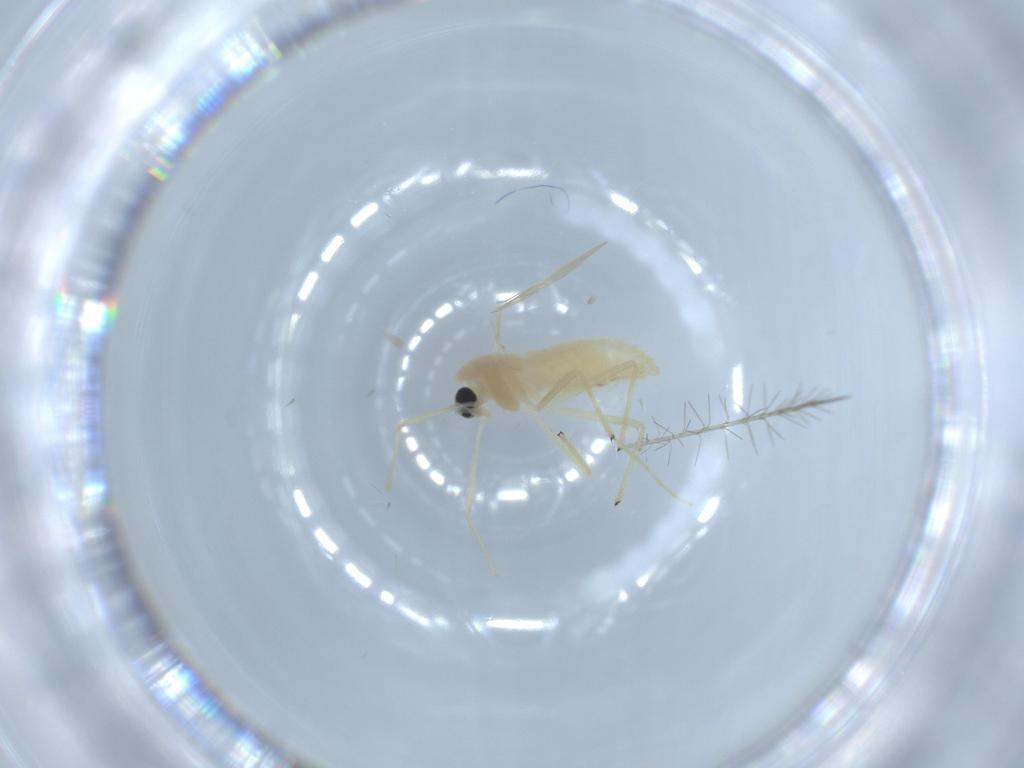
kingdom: Animalia
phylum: Arthropoda
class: Insecta
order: Diptera
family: Chironomidae
